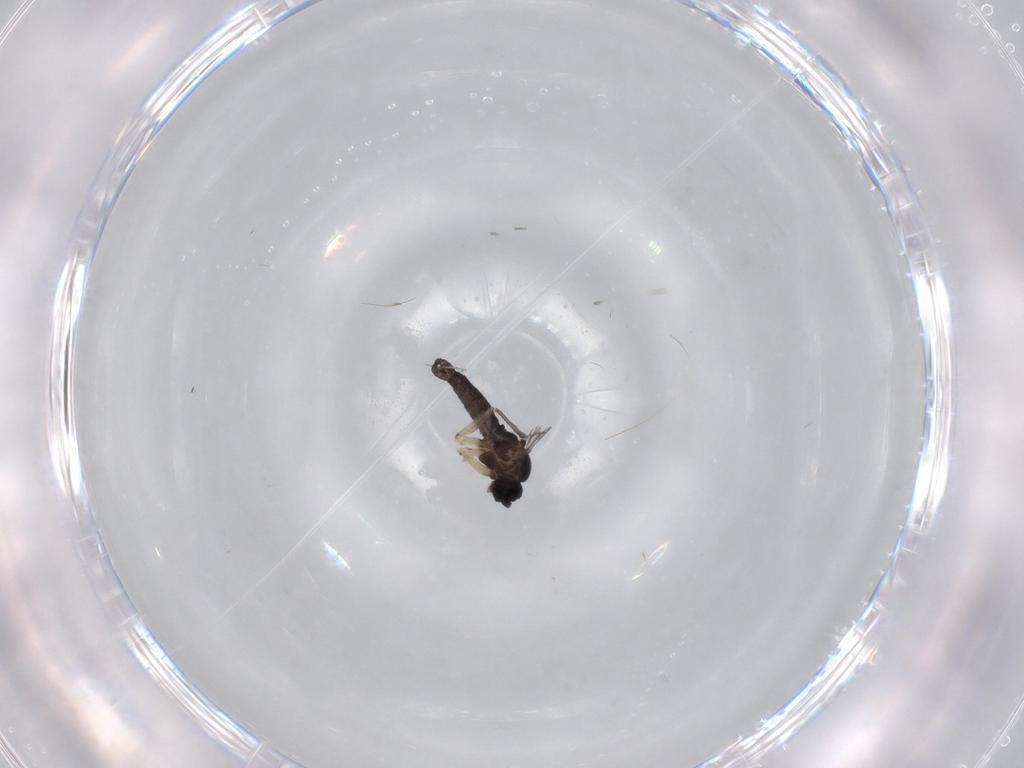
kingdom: Animalia
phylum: Arthropoda
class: Insecta
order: Diptera
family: Sciaridae
